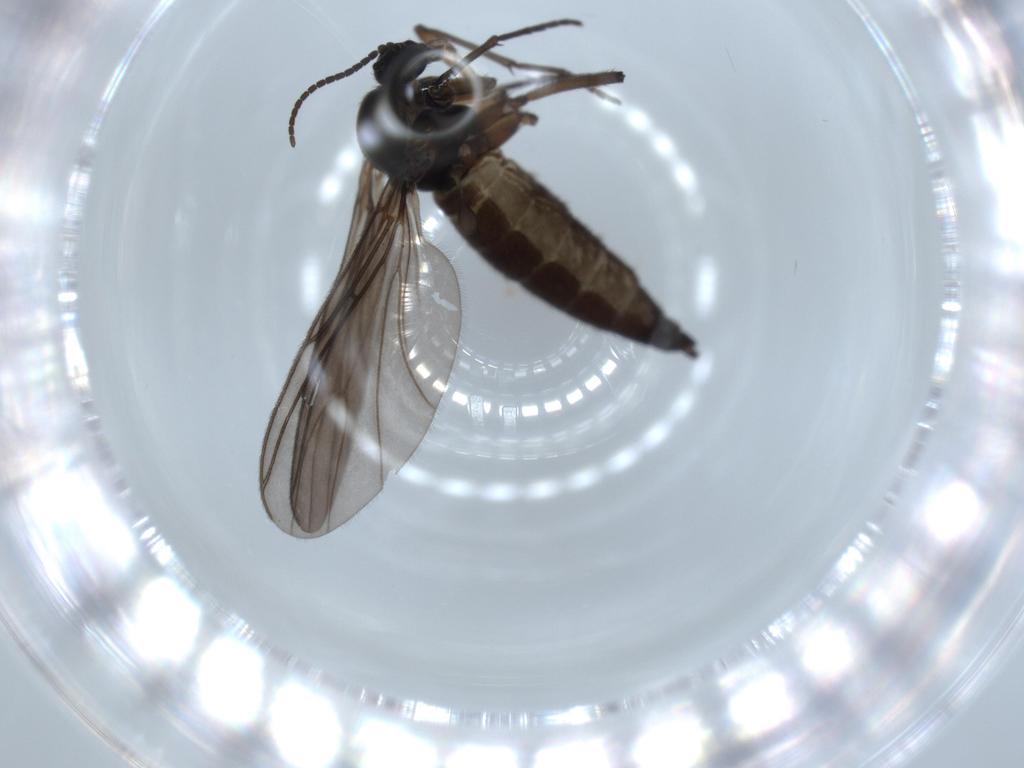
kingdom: Animalia
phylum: Arthropoda
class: Insecta
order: Diptera
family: Sciaridae
